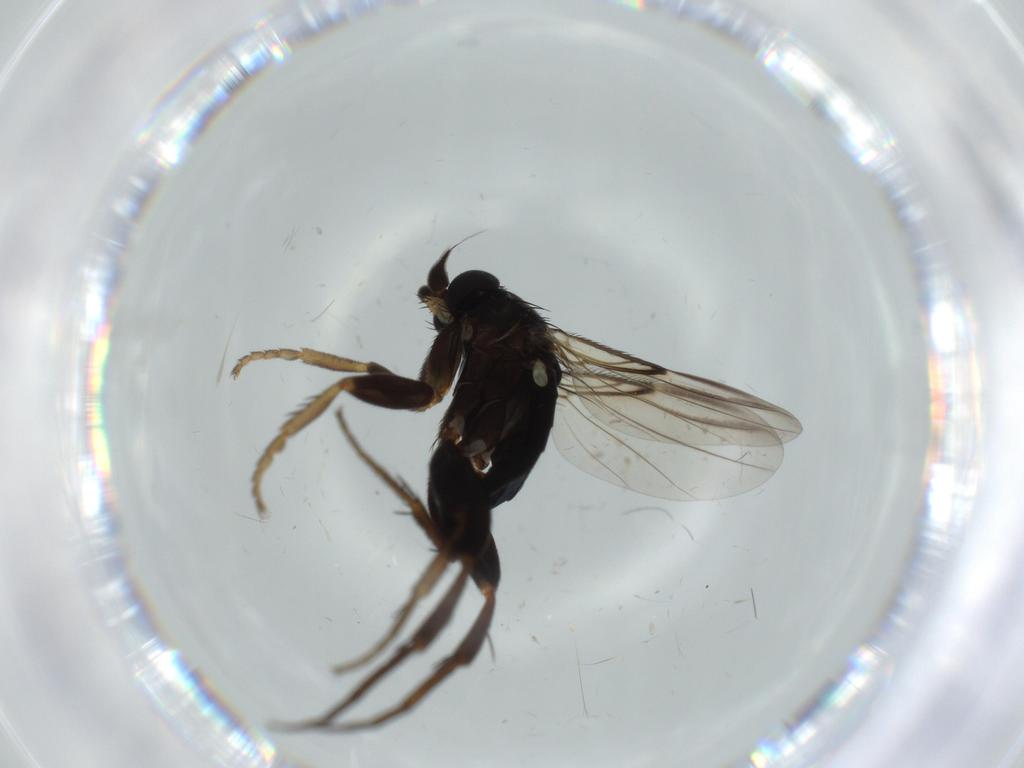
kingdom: Animalia
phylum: Arthropoda
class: Insecta
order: Diptera
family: Phoridae
